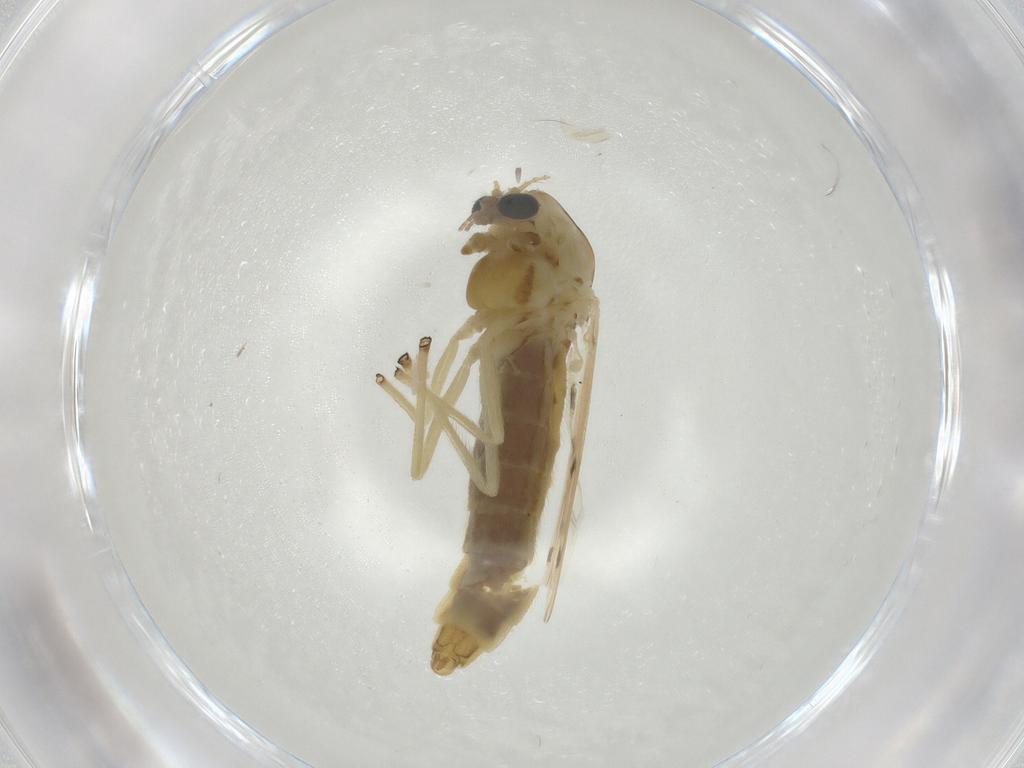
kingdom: Animalia
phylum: Arthropoda
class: Insecta
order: Diptera
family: Chironomidae
